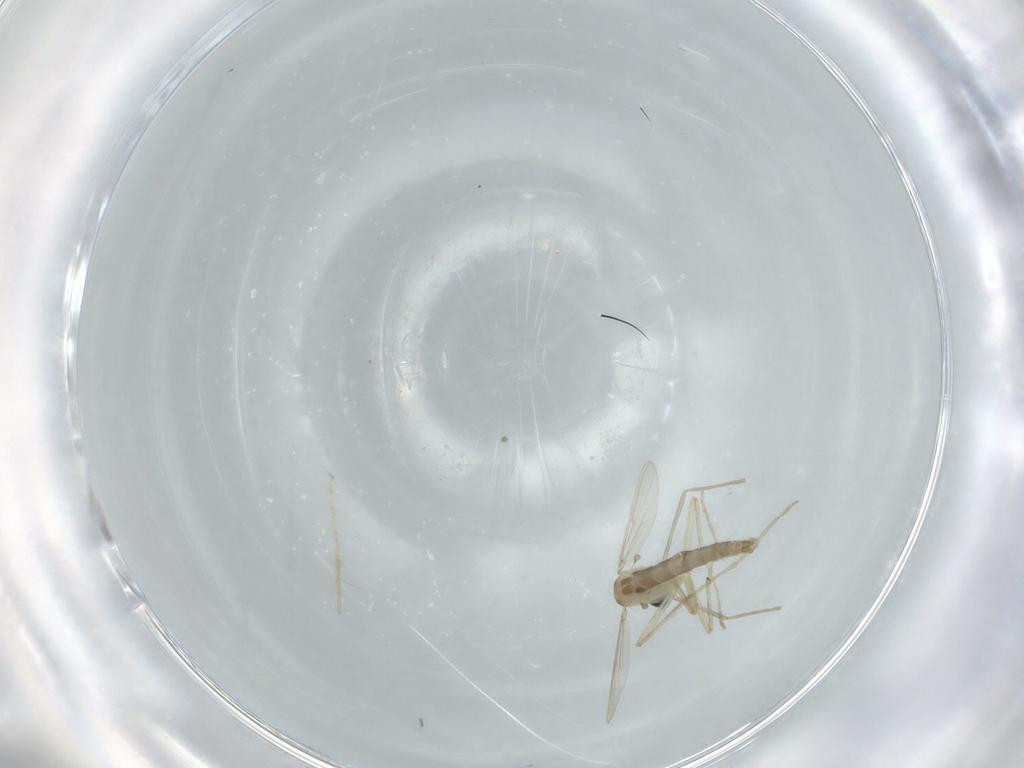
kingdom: Animalia
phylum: Arthropoda
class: Insecta
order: Diptera
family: Chironomidae
